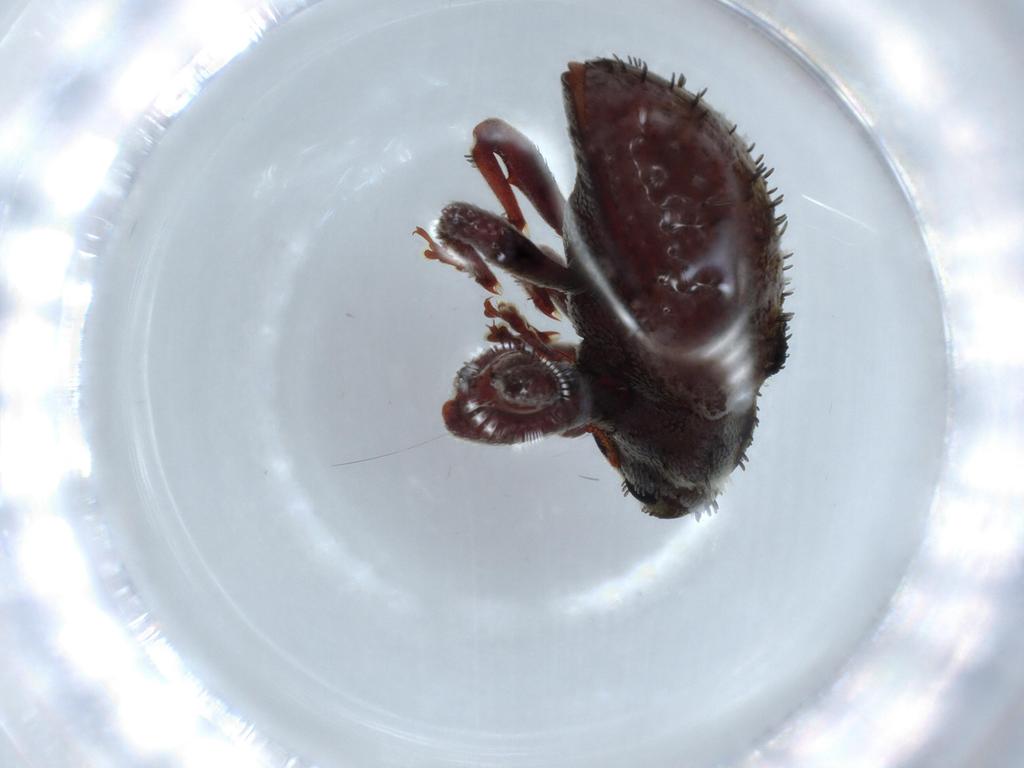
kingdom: Animalia
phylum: Arthropoda
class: Insecta
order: Coleoptera
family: Curculionidae
